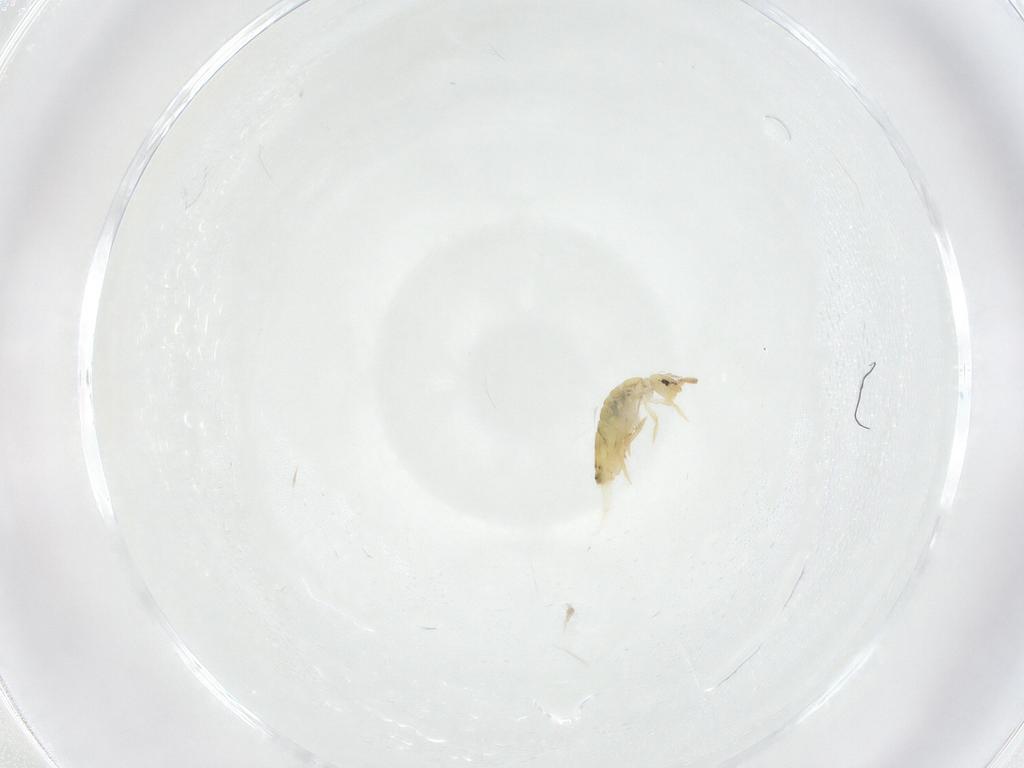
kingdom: Animalia
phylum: Arthropoda
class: Collembola
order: Entomobryomorpha
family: Entomobryidae
